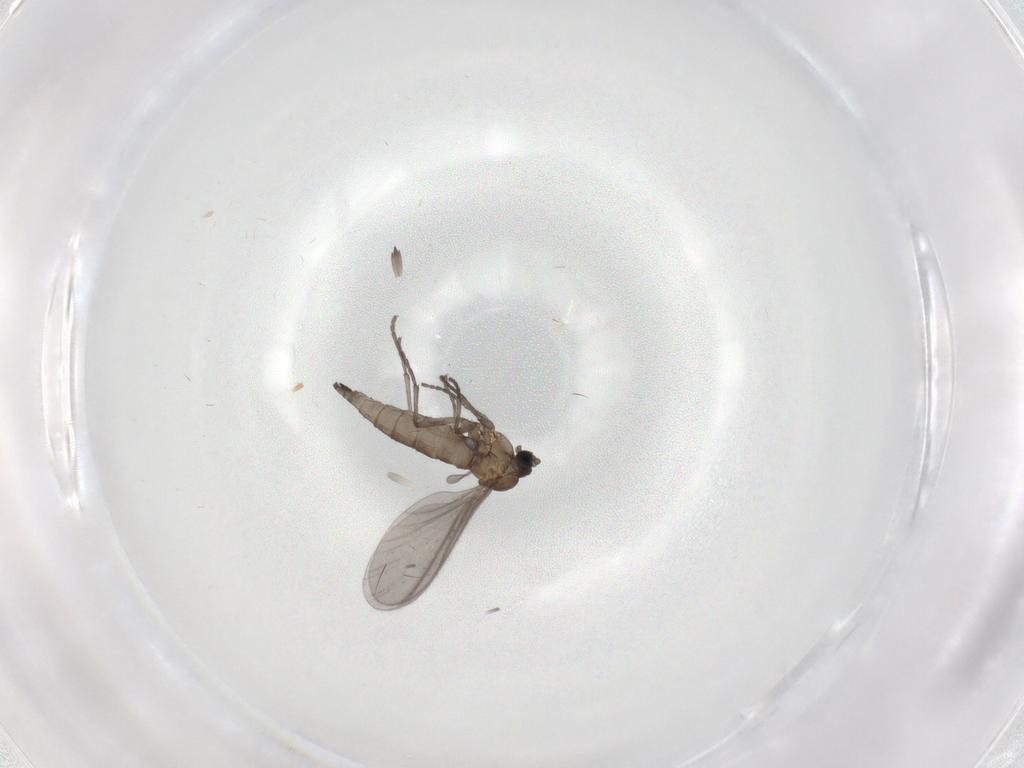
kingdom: Animalia
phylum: Arthropoda
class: Insecta
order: Diptera
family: Sciaridae
